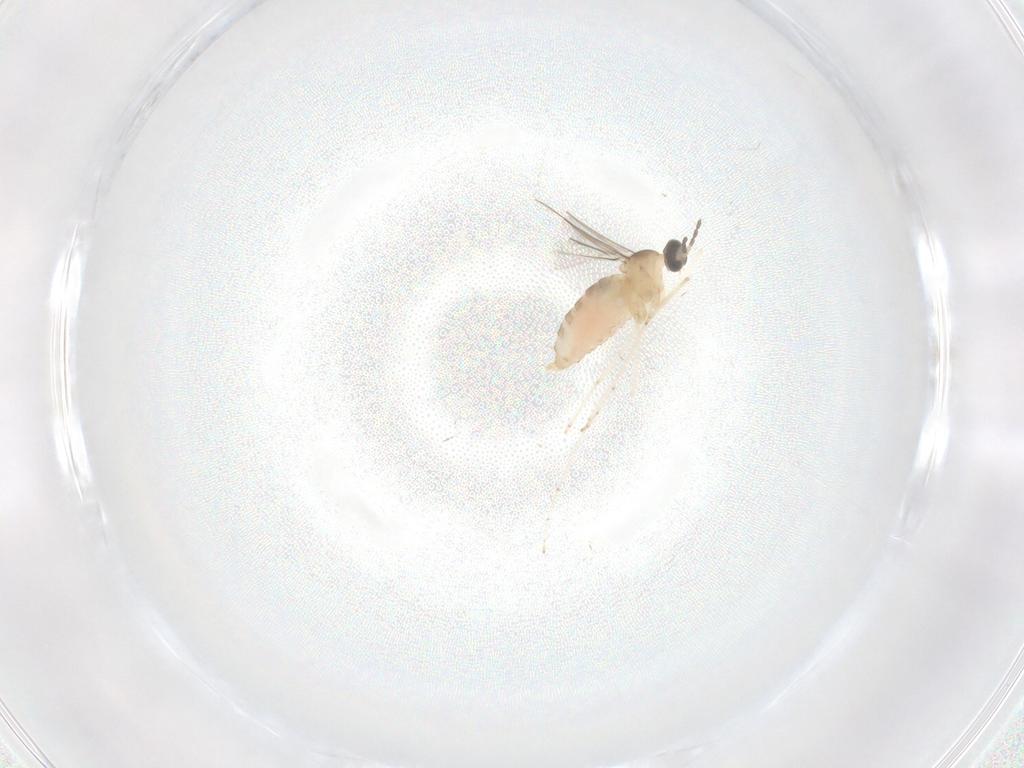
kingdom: Animalia
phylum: Arthropoda
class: Insecta
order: Diptera
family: Cecidomyiidae
